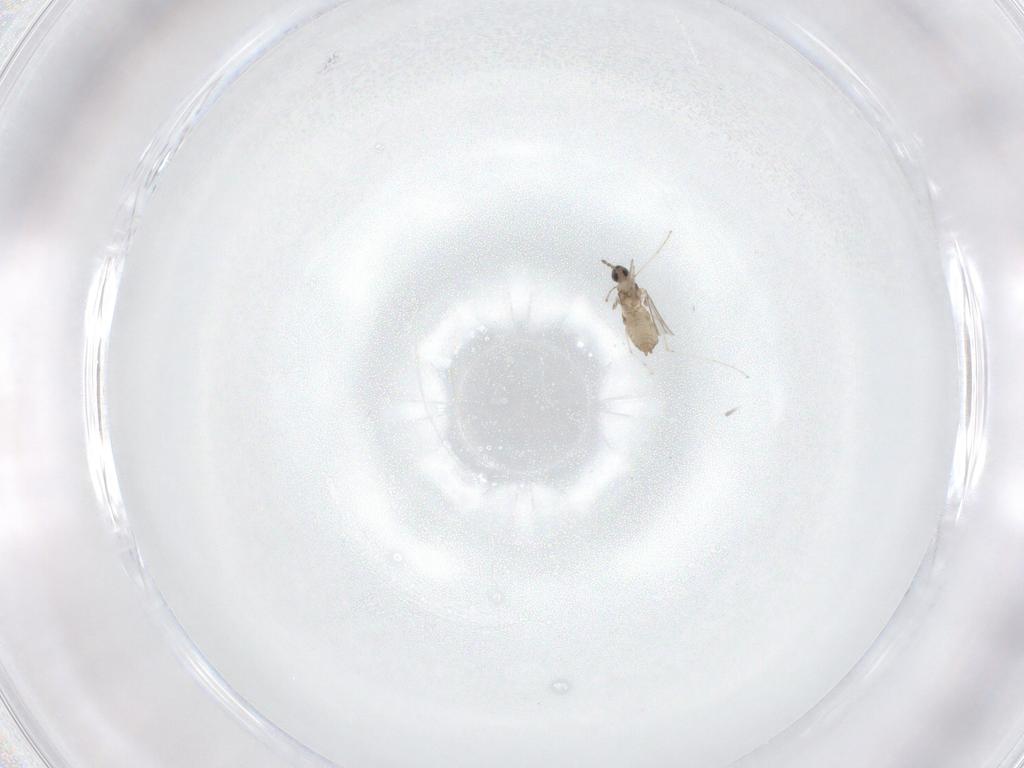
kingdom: Animalia
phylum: Arthropoda
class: Insecta
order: Diptera
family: Cecidomyiidae
